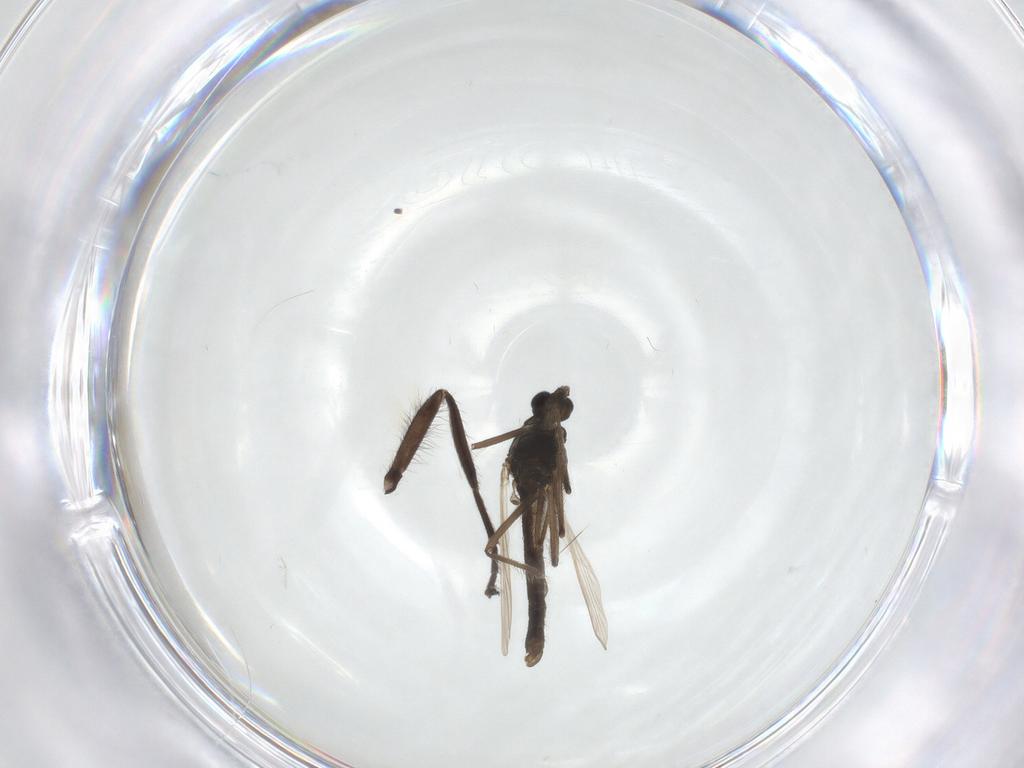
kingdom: Animalia
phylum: Arthropoda
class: Insecta
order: Diptera
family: Chironomidae
